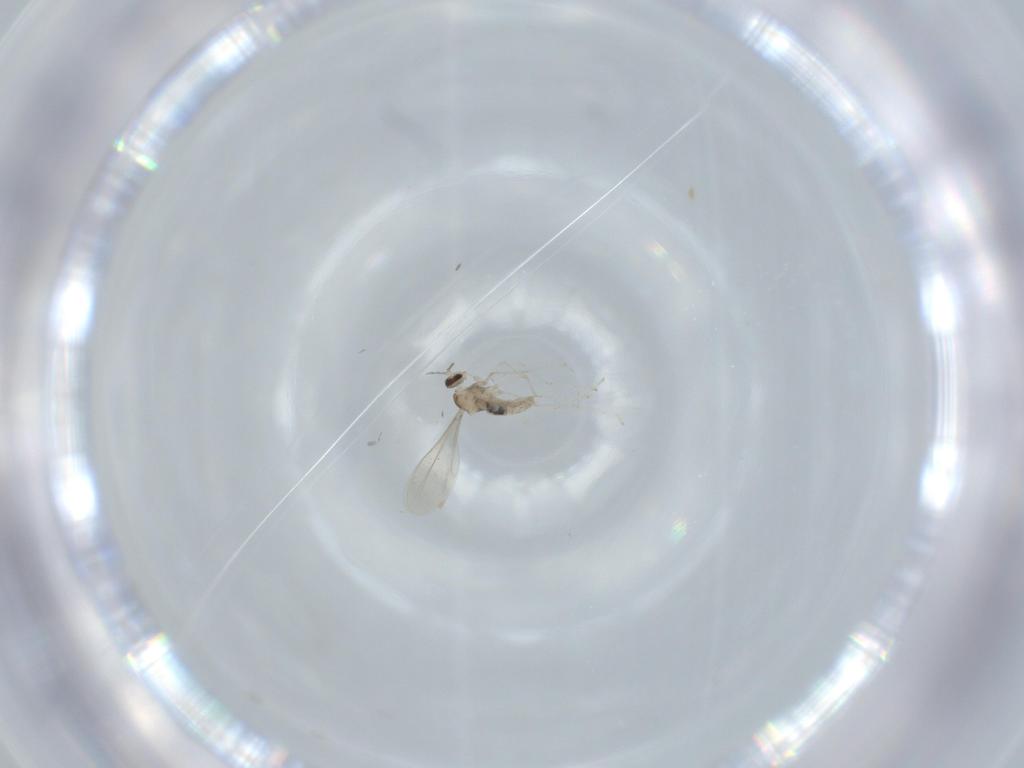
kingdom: Animalia
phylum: Arthropoda
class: Insecta
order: Diptera
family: Cecidomyiidae
